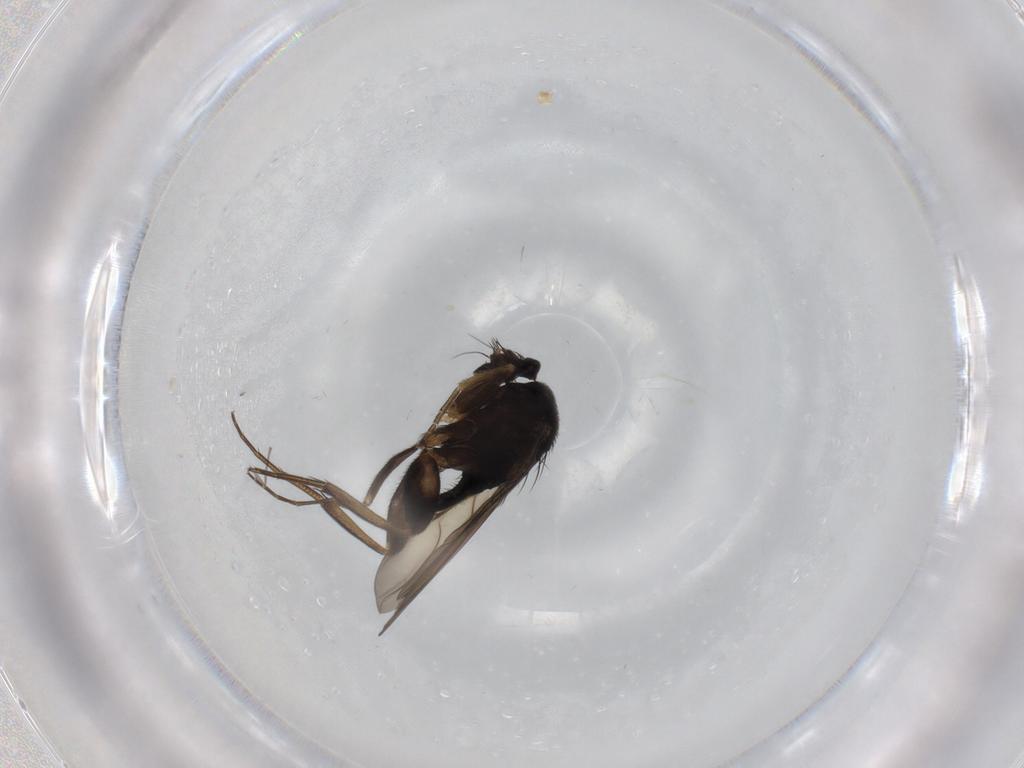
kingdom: Animalia
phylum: Arthropoda
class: Insecta
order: Diptera
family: Phoridae
